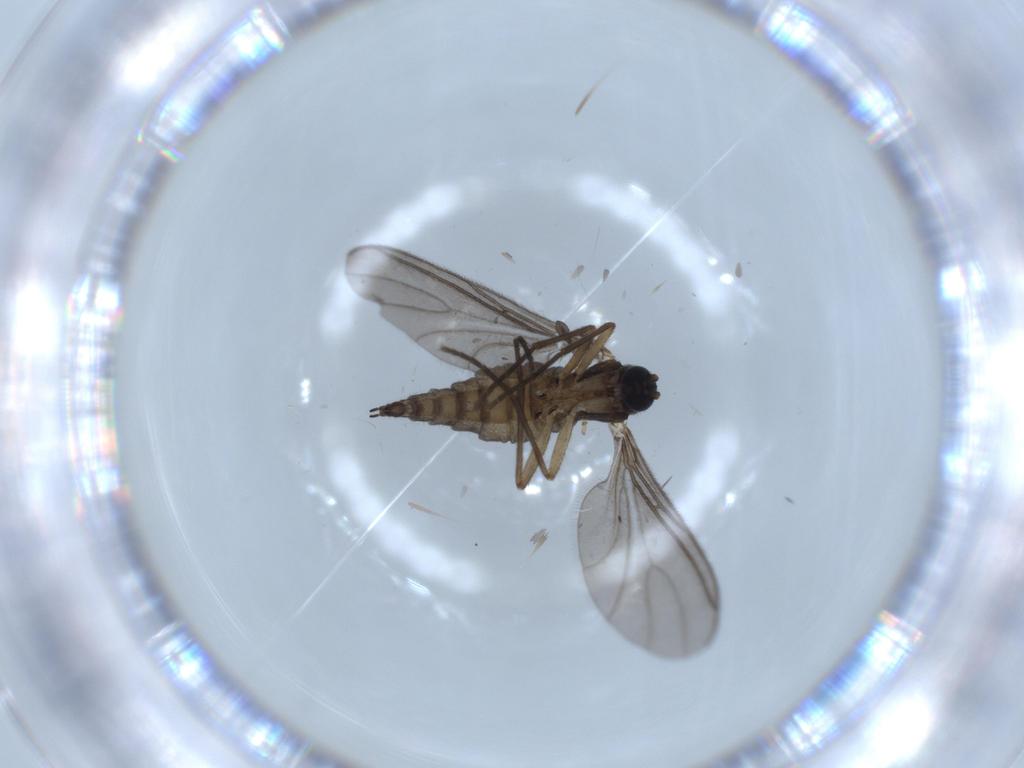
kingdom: Animalia
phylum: Arthropoda
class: Insecta
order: Diptera
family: Sciaridae
